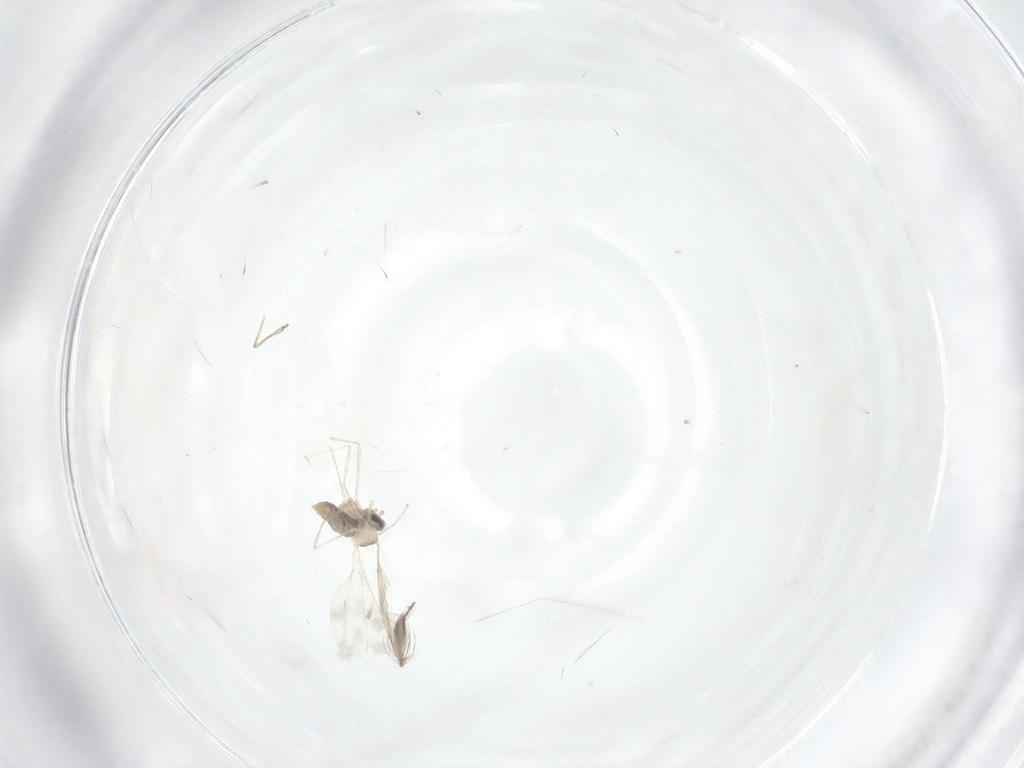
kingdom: Animalia
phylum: Arthropoda
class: Insecta
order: Diptera
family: Psychodidae
